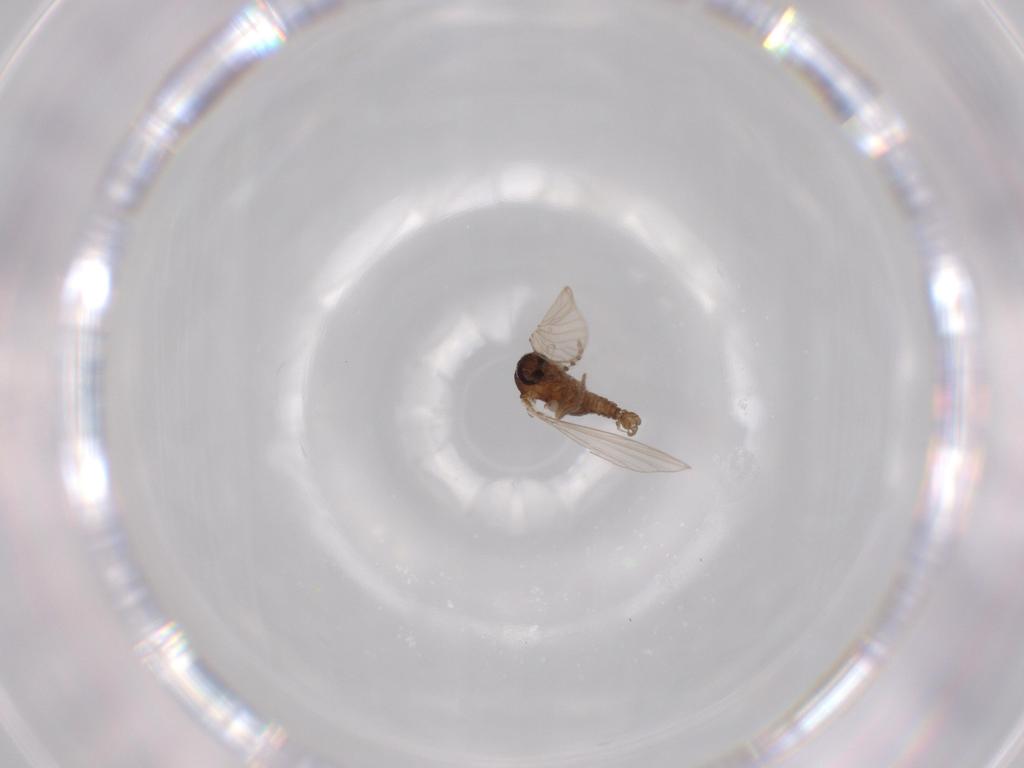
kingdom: Animalia
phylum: Arthropoda
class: Insecta
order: Diptera
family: Psychodidae
